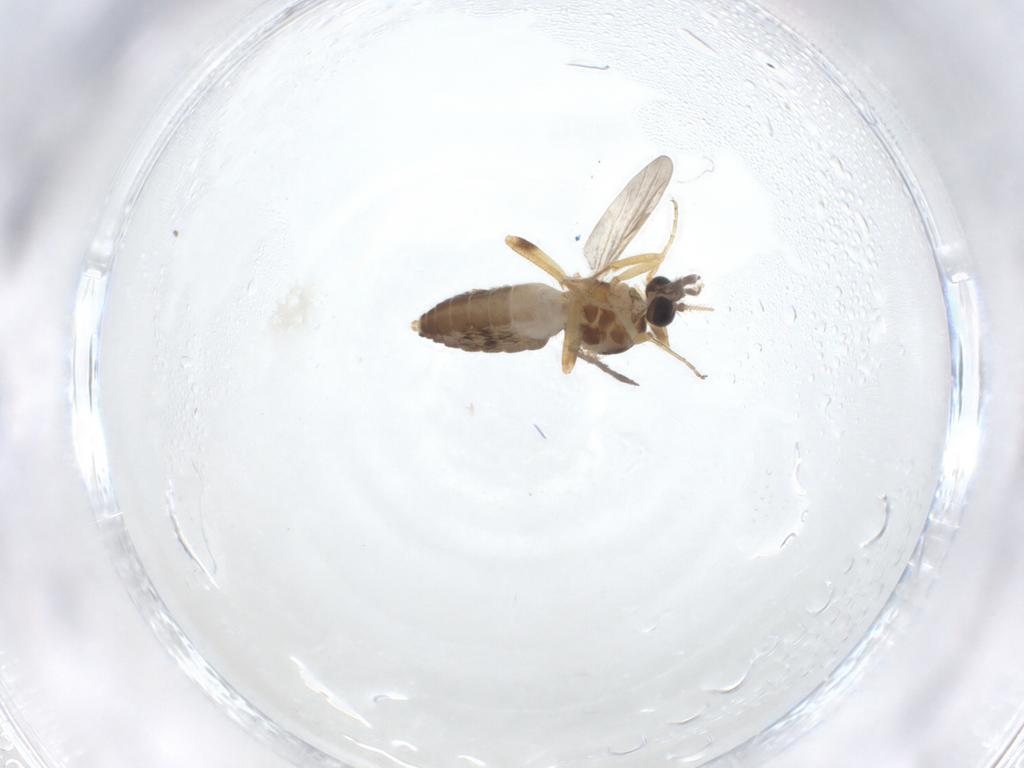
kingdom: Animalia
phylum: Arthropoda
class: Insecta
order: Diptera
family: Ceratopogonidae
